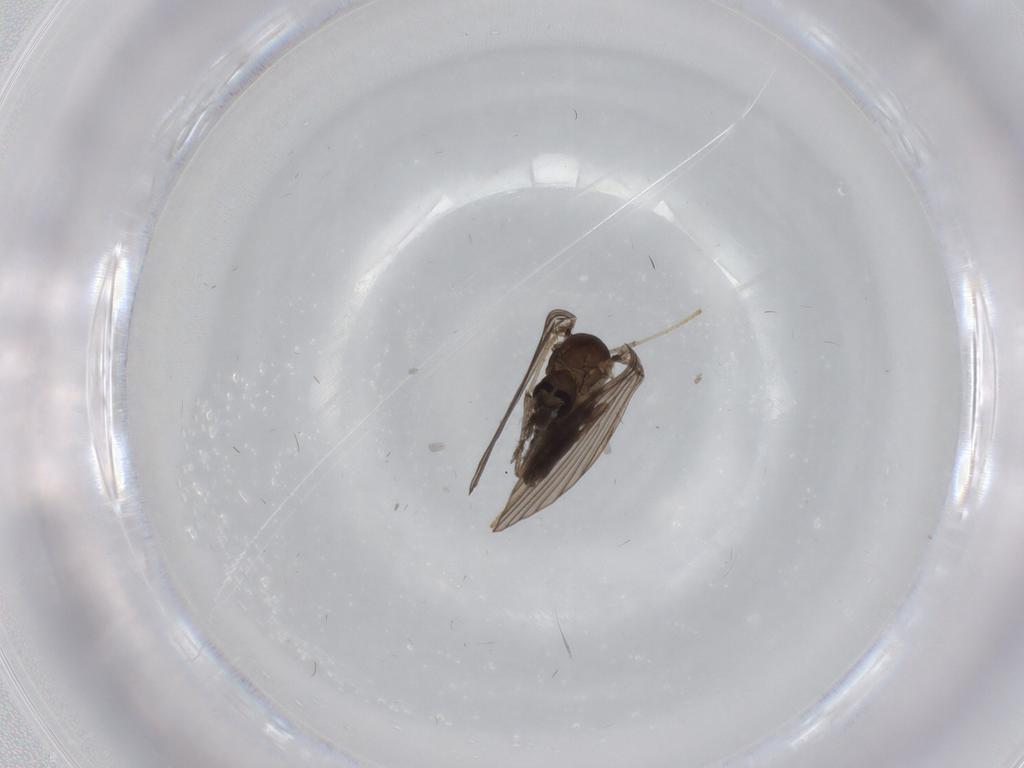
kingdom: Animalia
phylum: Arthropoda
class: Insecta
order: Diptera
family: Psychodidae
